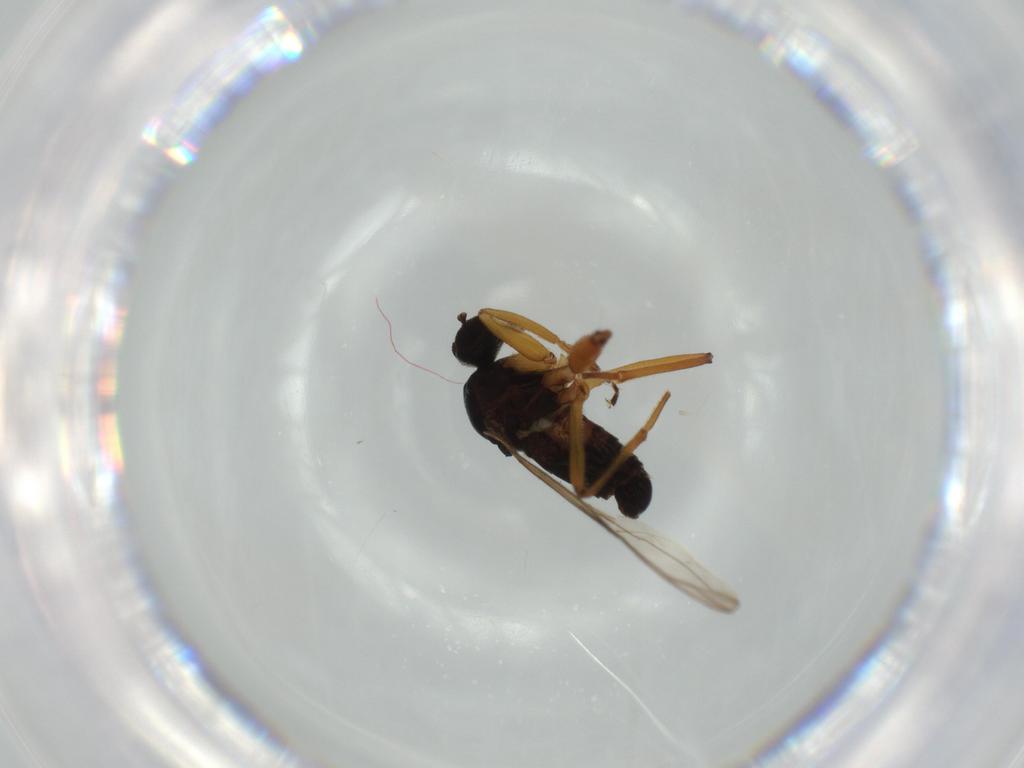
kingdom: Animalia
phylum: Arthropoda
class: Insecta
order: Diptera
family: Hybotidae
